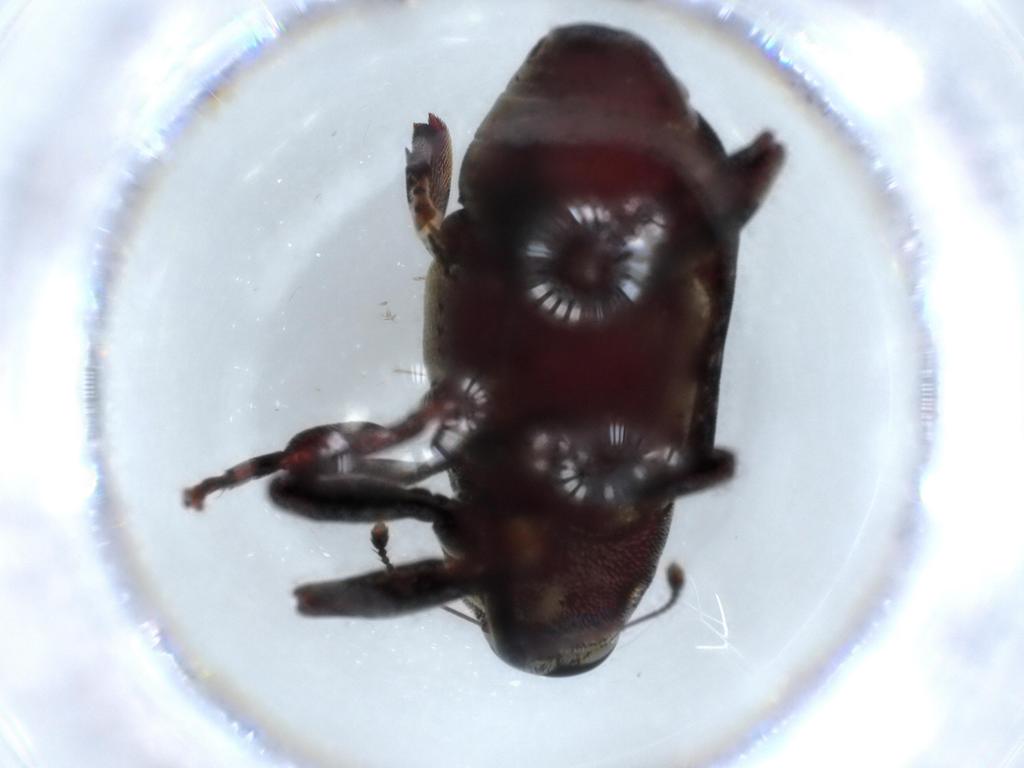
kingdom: Animalia
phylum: Arthropoda
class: Insecta
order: Coleoptera
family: Curculionidae
